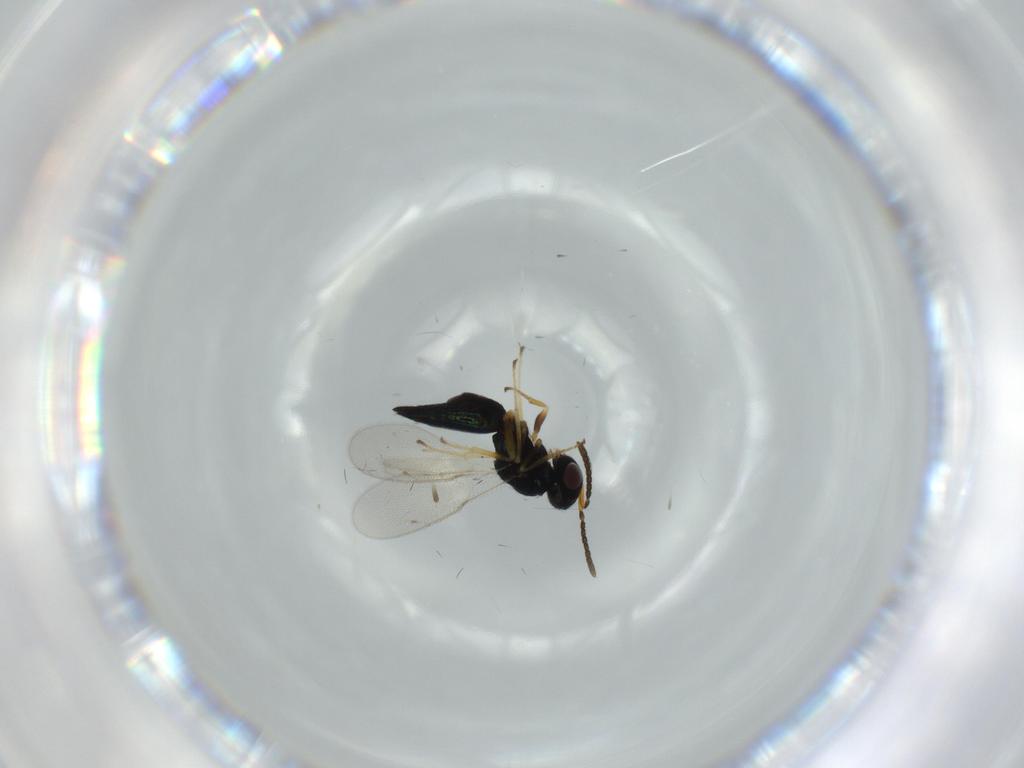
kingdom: Animalia
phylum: Arthropoda
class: Insecta
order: Hymenoptera
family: Pteromalidae
